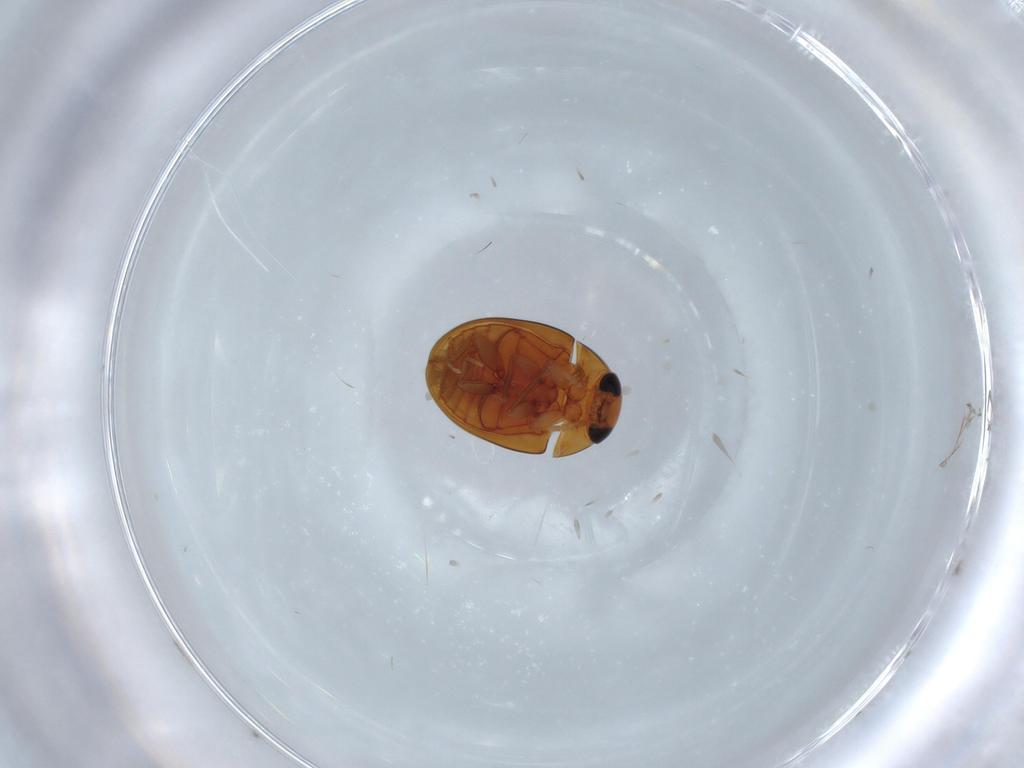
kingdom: Animalia
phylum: Arthropoda
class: Insecta
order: Coleoptera
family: Phalacridae
